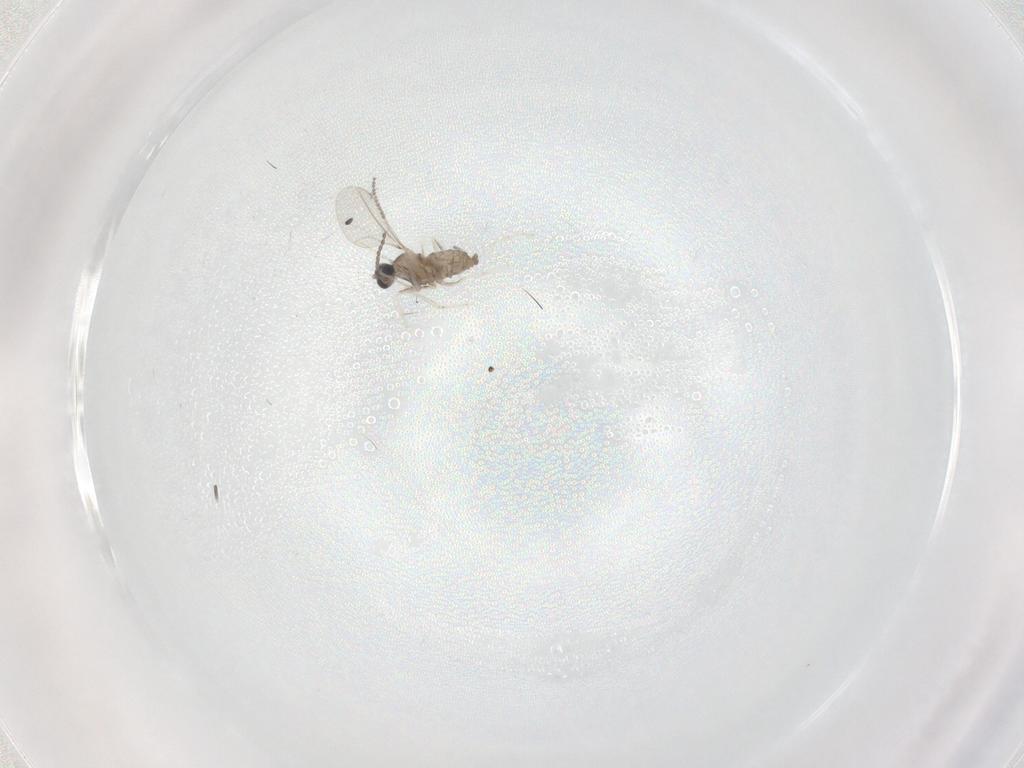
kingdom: Animalia
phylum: Arthropoda
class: Insecta
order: Diptera
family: Cecidomyiidae
